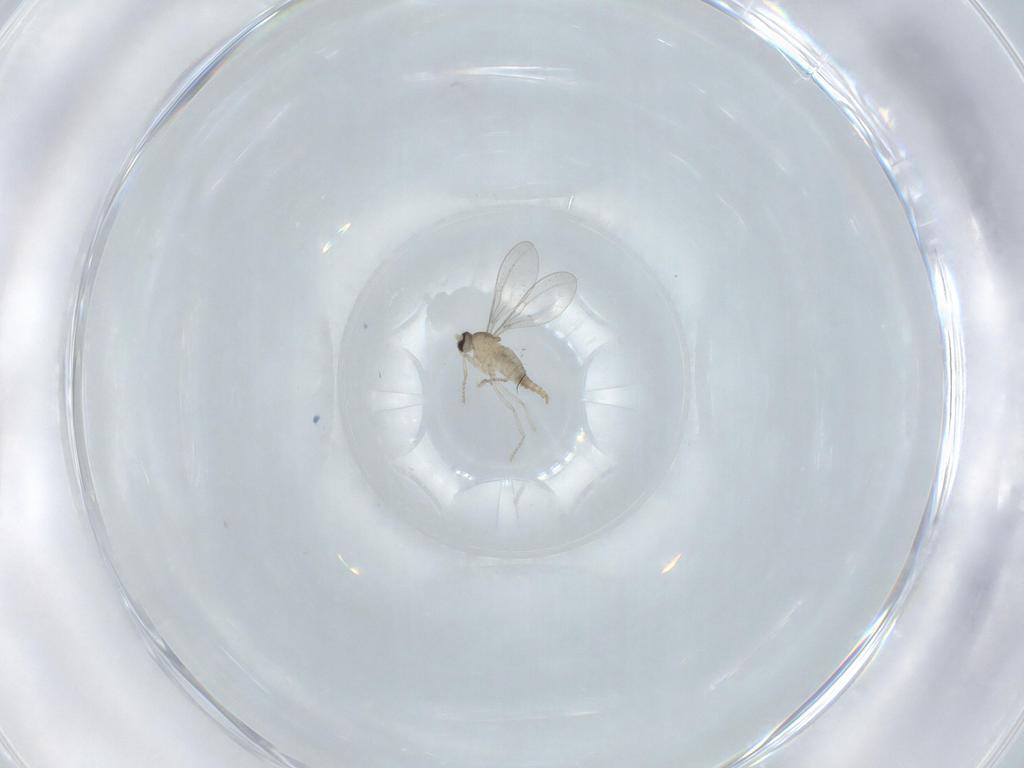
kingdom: Animalia
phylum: Arthropoda
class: Insecta
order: Diptera
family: Cecidomyiidae
